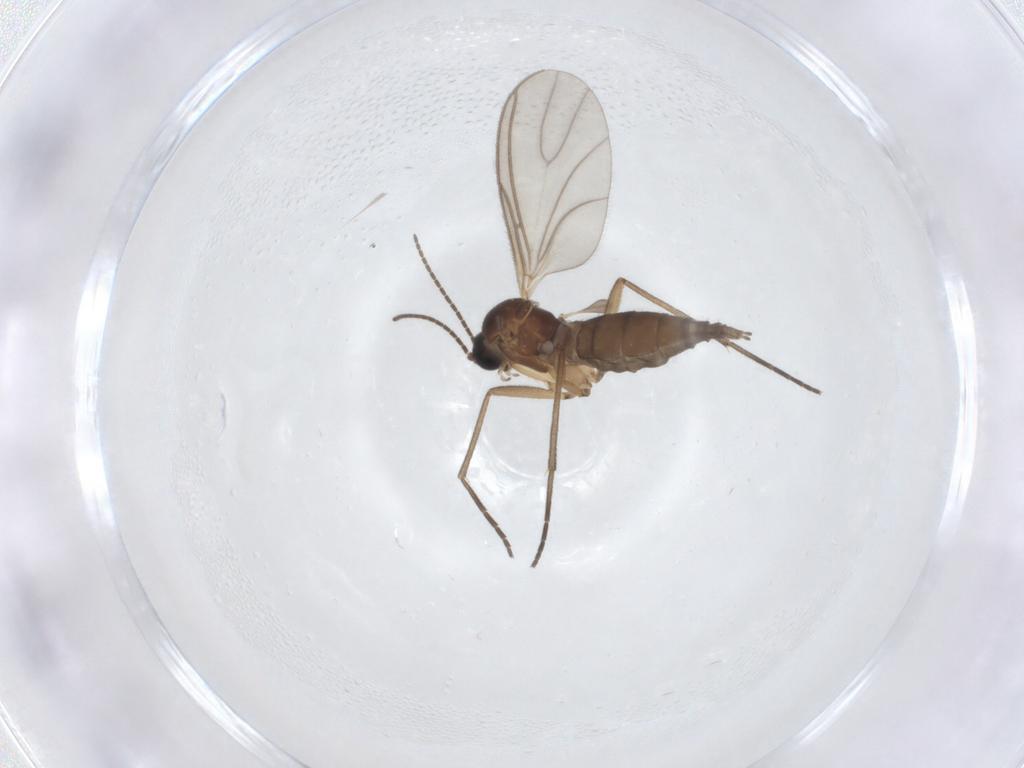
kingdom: Animalia
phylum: Arthropoda
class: Insecta
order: Diptera
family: Sciaridae
